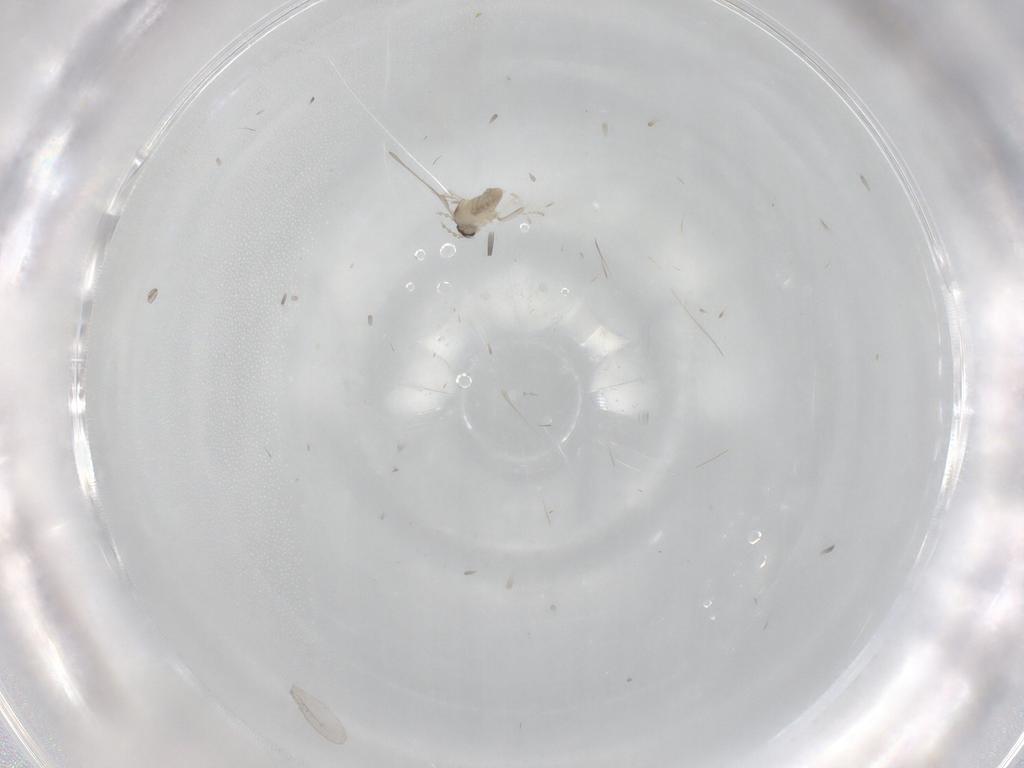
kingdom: Animalia
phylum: Arthropoda
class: Insecta
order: Diptera
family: Cecidomyiidae
